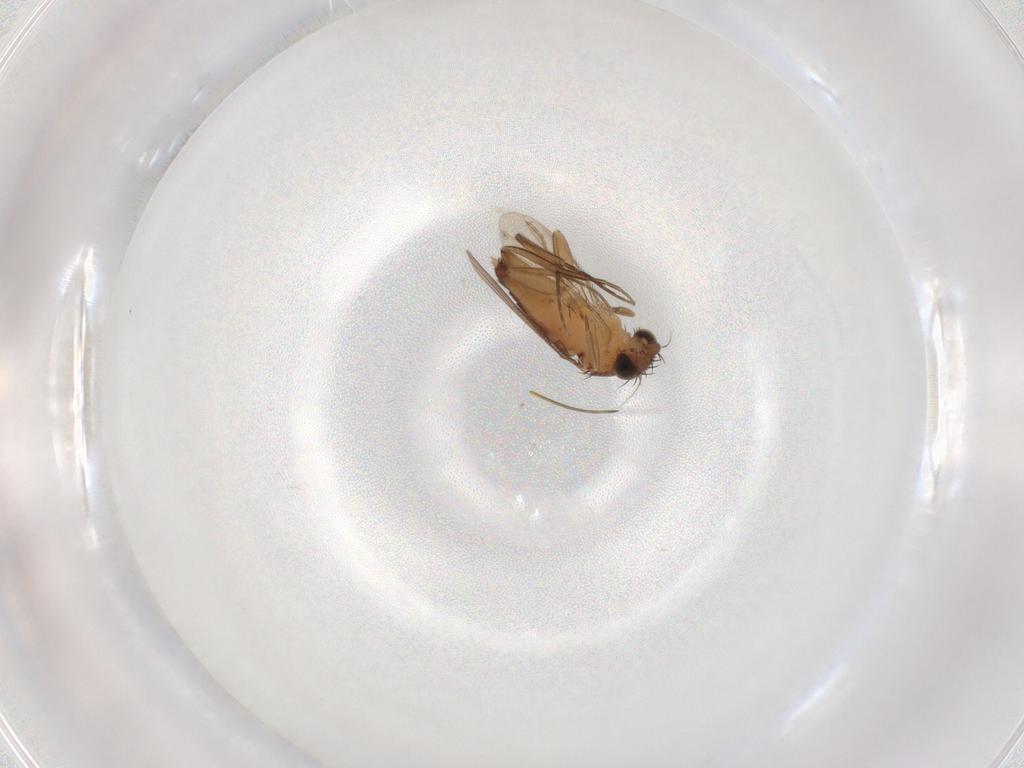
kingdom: Animalia
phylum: Arthropoda
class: Insecta
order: Diptera
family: Phoridae
